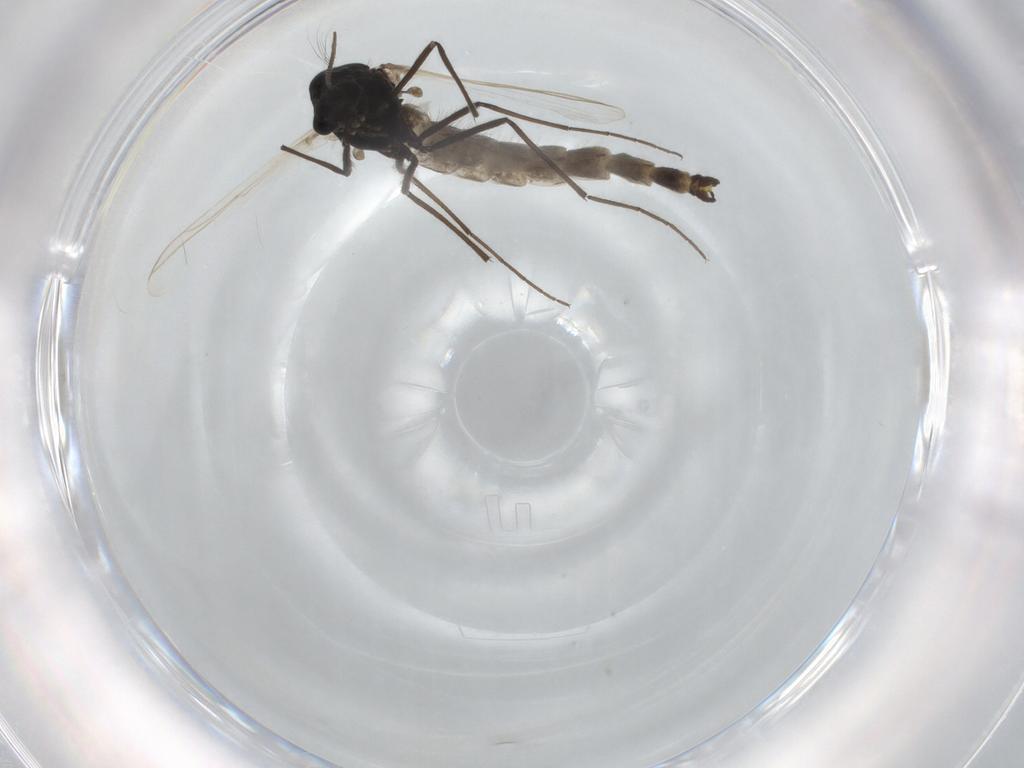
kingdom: Animalia
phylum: Arthropoda
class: Insecta
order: Diptera
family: Chironomidae
